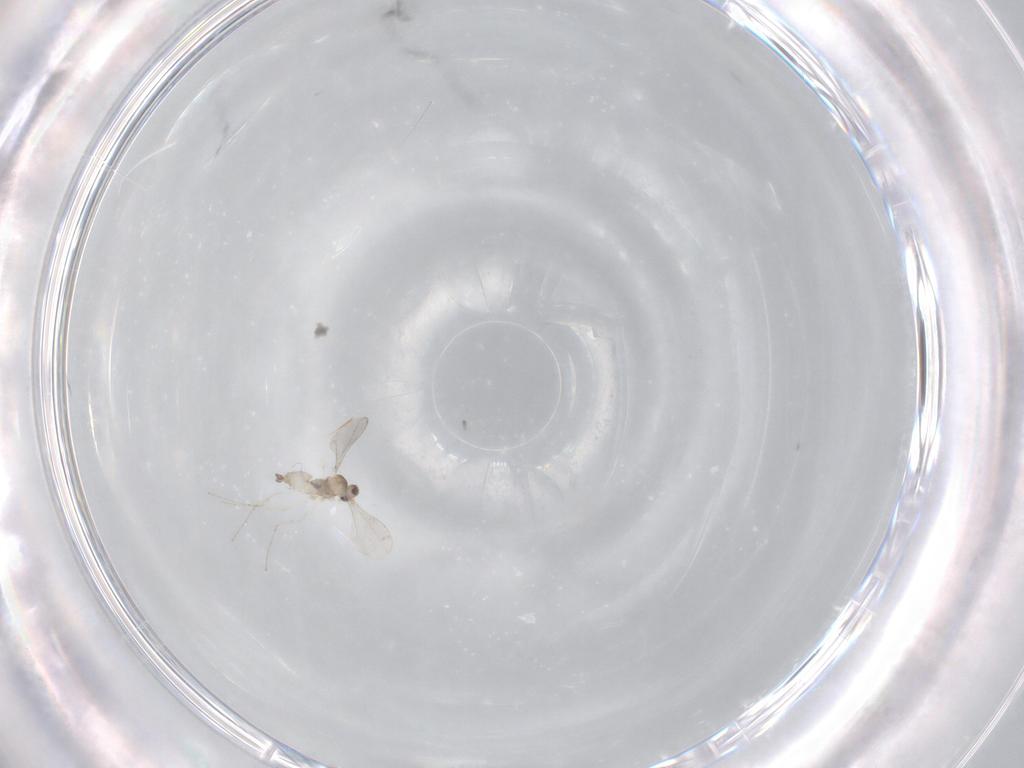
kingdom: Animalia
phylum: Arthropoda
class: Insecta
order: Diptera
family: Cecidomyiidae
